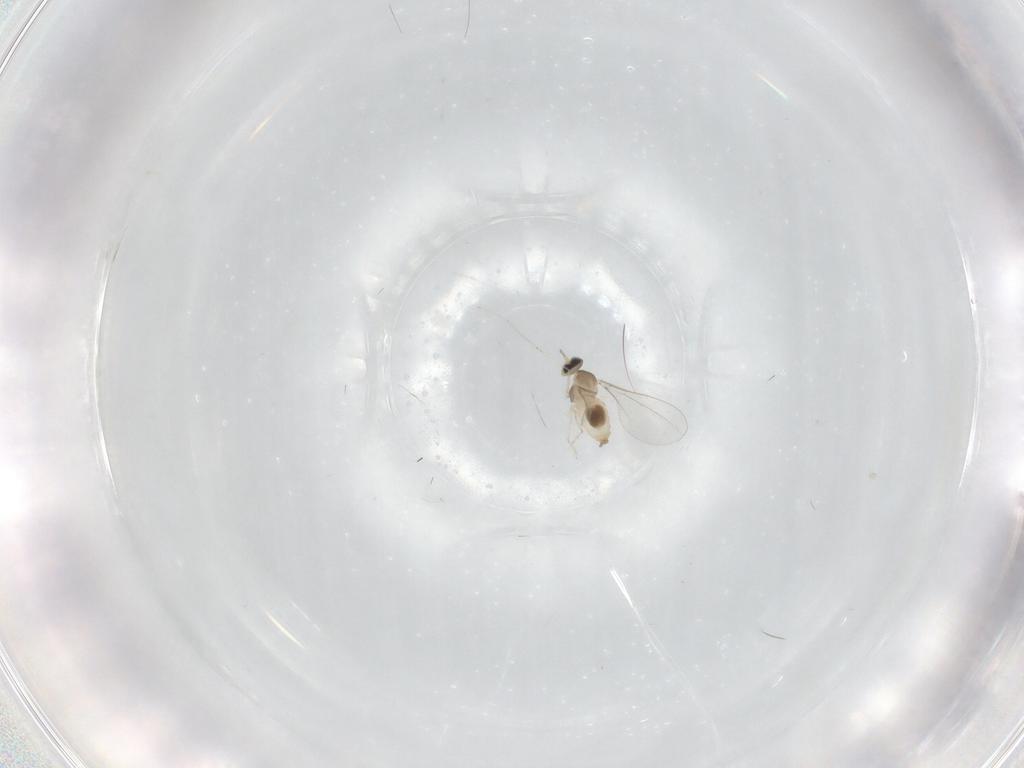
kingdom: Animalia
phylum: Arthropoda
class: Insecta
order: Diptera
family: Cecidomyiidae
